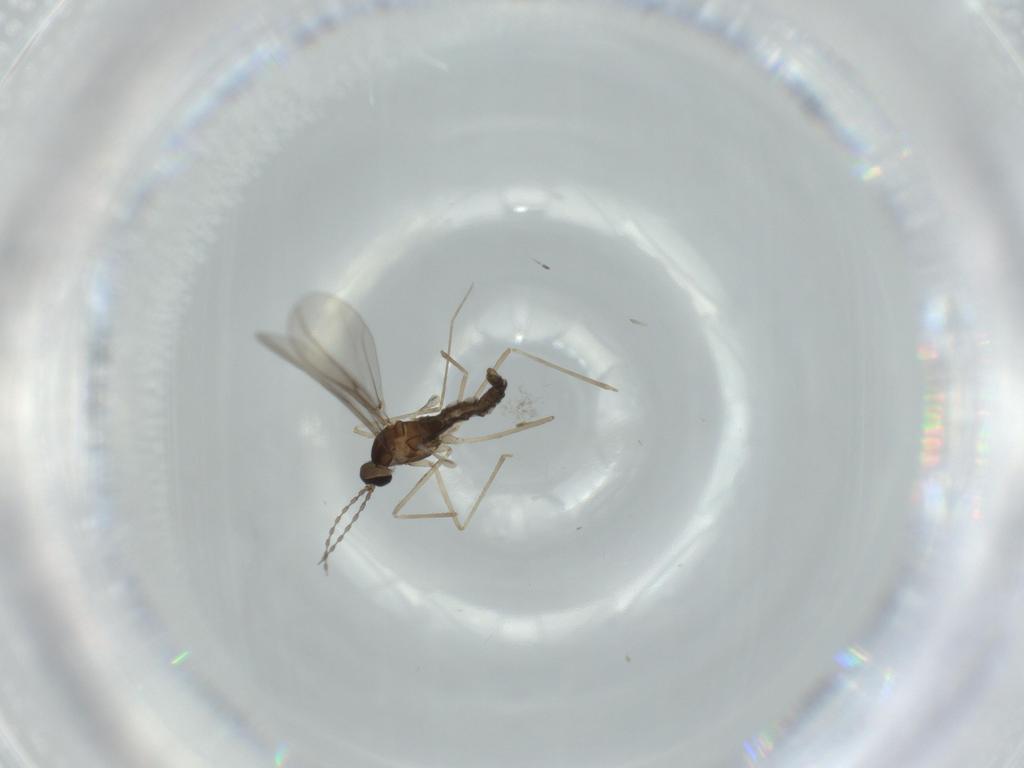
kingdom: Animalia
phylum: Arthropoda
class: Insecta
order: Diptera
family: Cecidomyiidae
